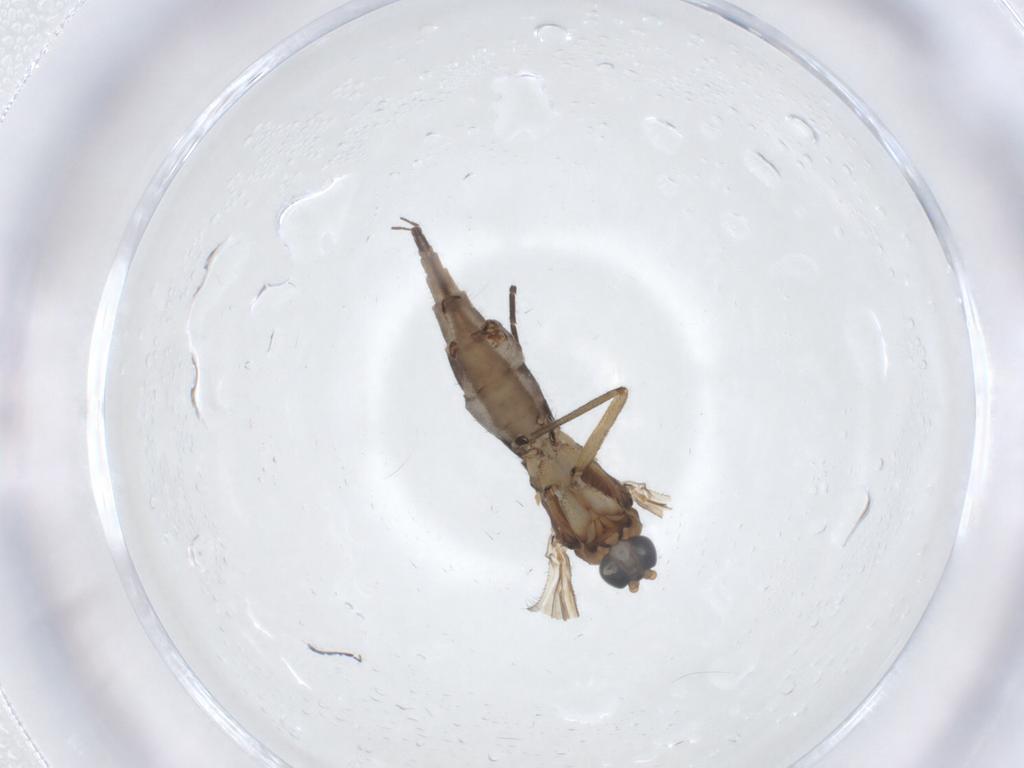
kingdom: Animalia
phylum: Arthropoda
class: Insecta
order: Diptera
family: Sciaridae
